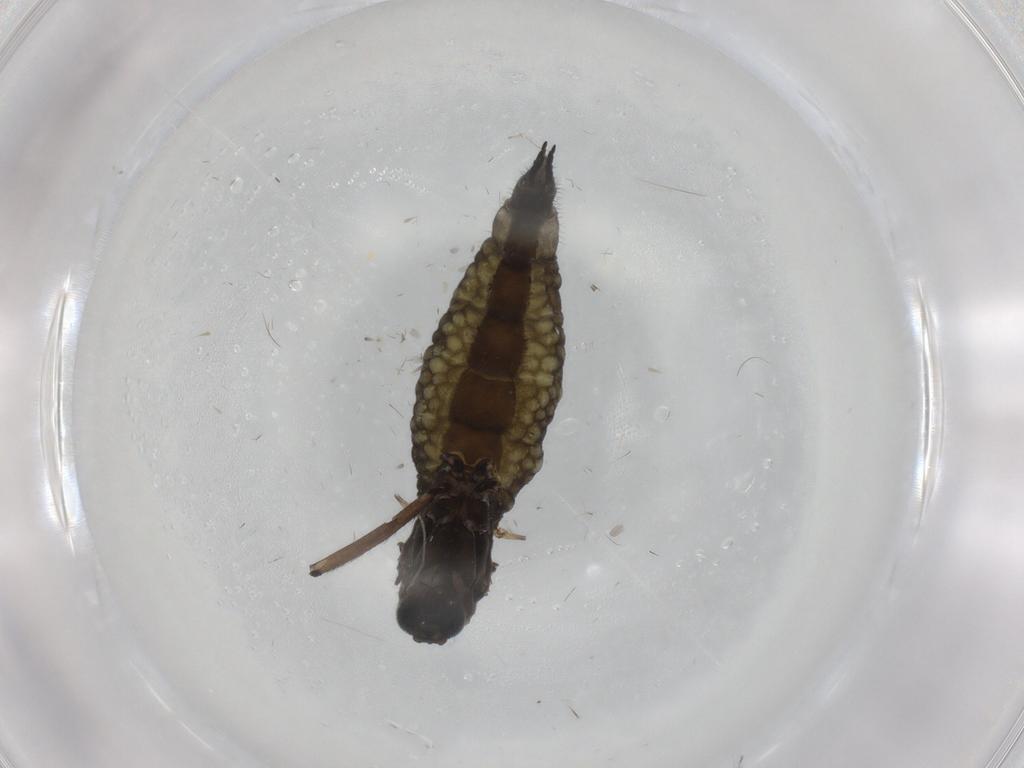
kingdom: Animalia
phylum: Arthropoda
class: Insecta
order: Diptera
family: Sciaridae
